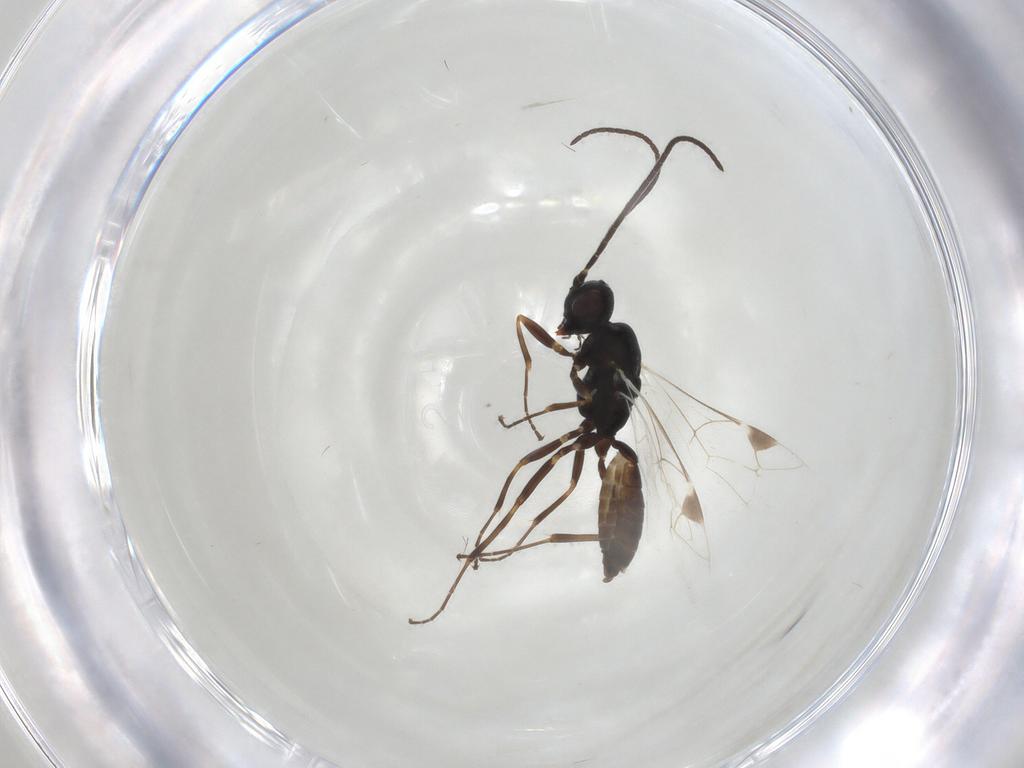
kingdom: Animalia
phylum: Arthropoda
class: Insecta
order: Hymenoptera
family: Ichneumonidae
